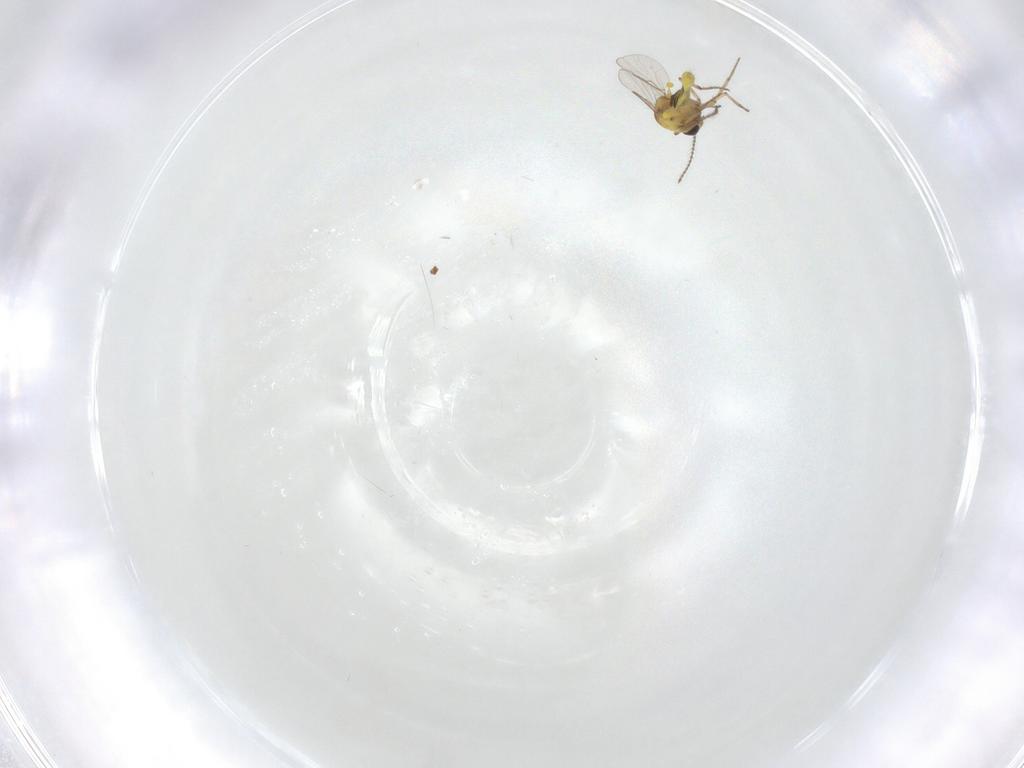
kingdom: Animalia
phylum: Arthropoda
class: Insecta
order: Diptera
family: Ceratopogonidae
